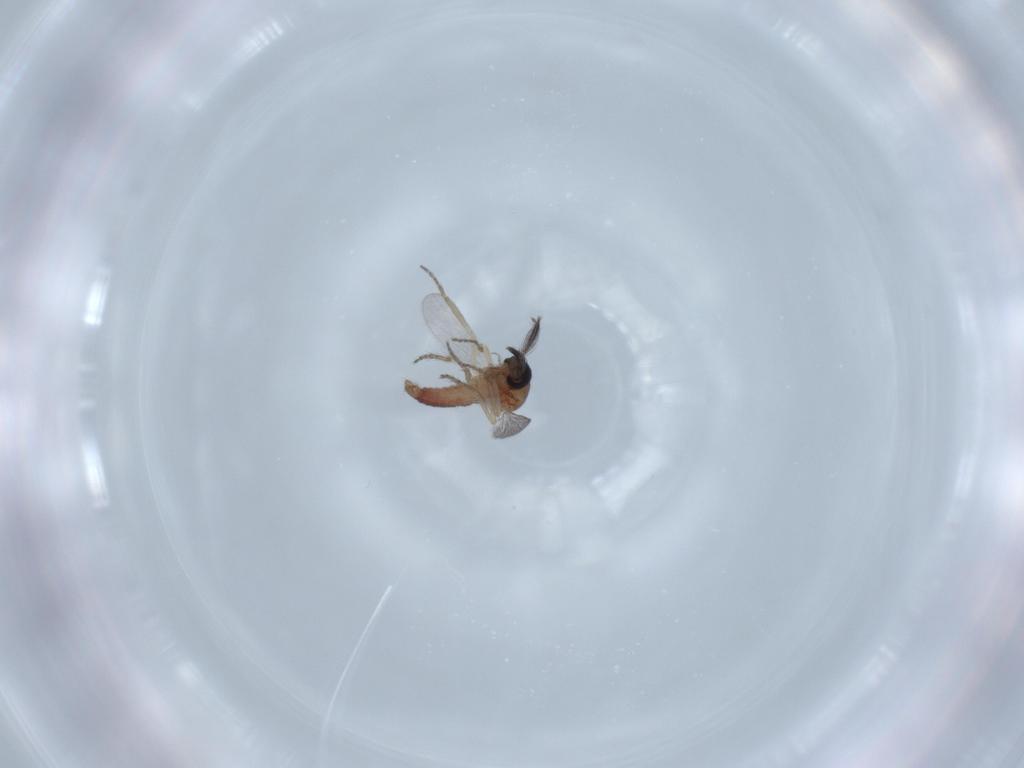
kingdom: Animalia
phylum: Arthropoda
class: Insecta
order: Diptera
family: Ceratopogonidae
